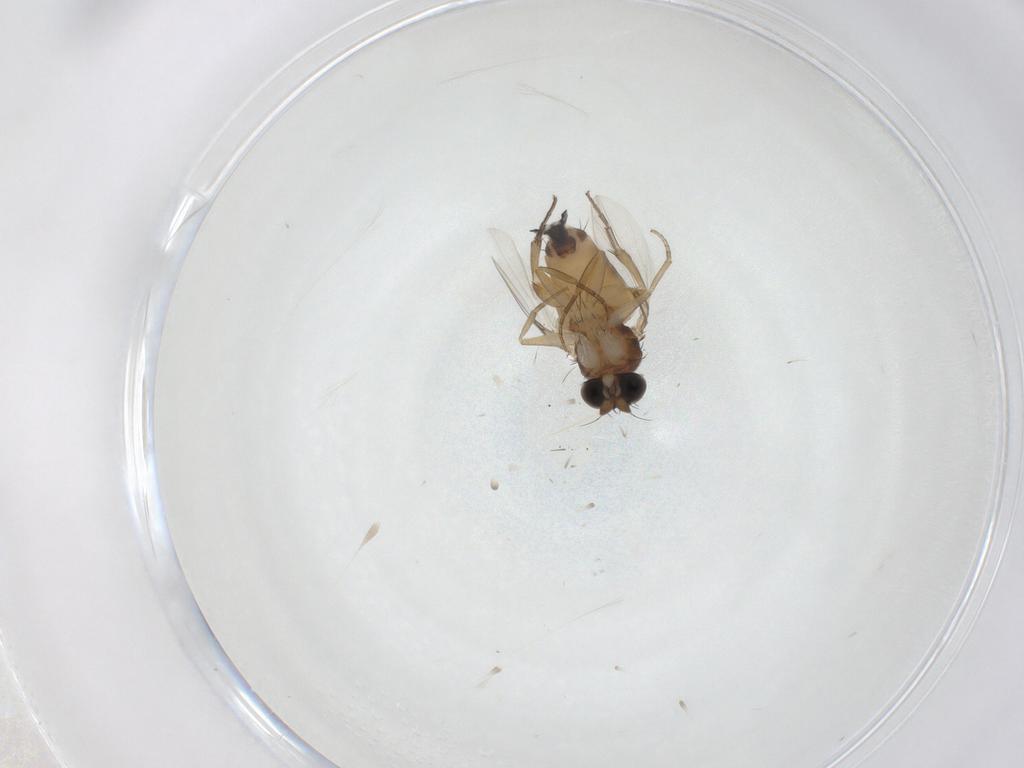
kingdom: Animalia
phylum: Arthropoda
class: Insecta
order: Diptera
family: Phoridae
